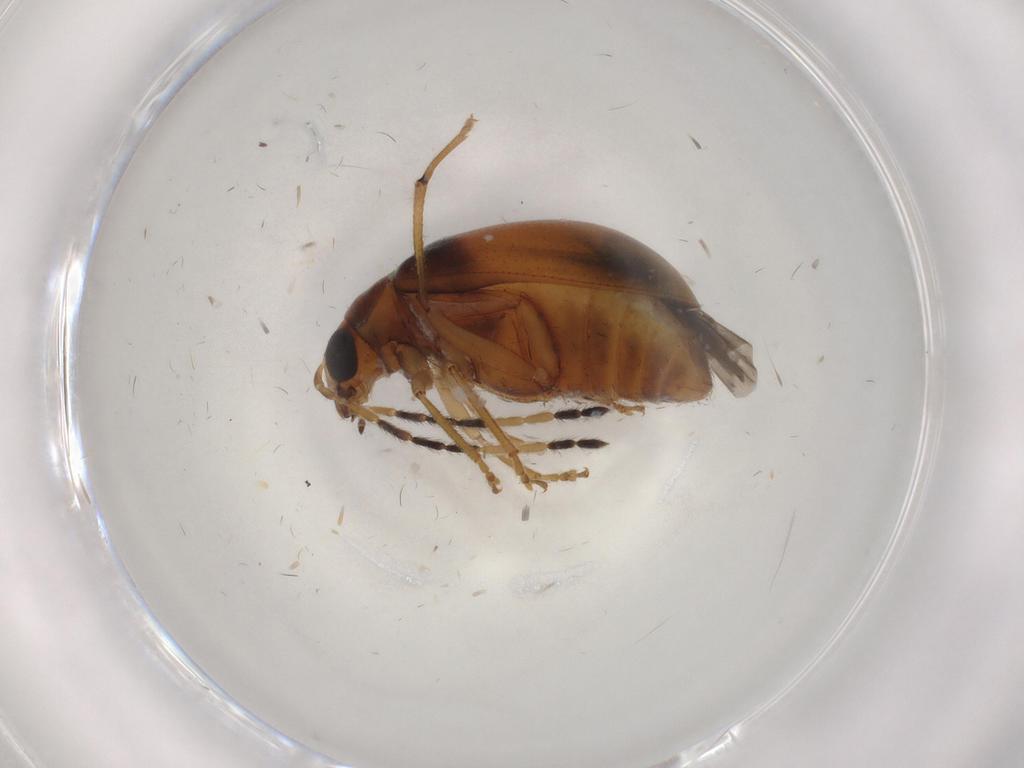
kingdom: Animalia
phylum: Arthropoda
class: Insecta
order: Coleoptera
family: Chrysomelidae
